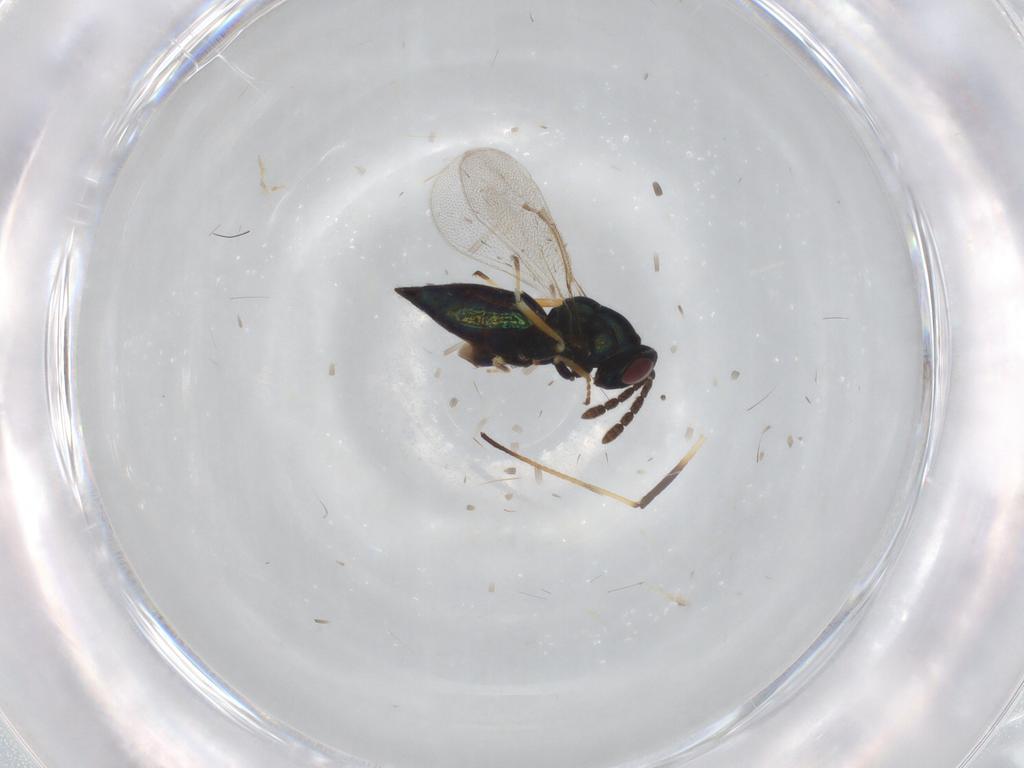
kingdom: Animalia
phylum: Arthropoda
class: Insecta
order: Hymenoptera
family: Eulophidae
